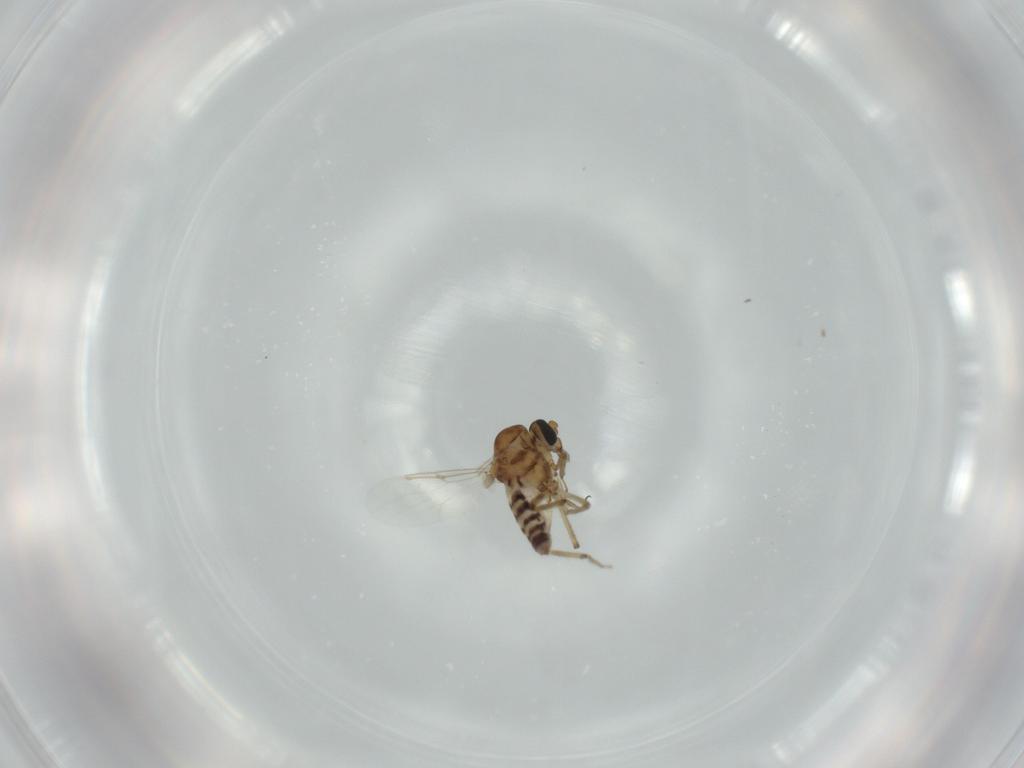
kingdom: Animalia
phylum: Arthropoda
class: Insecta
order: Diptera
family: Ceratopogonidae
